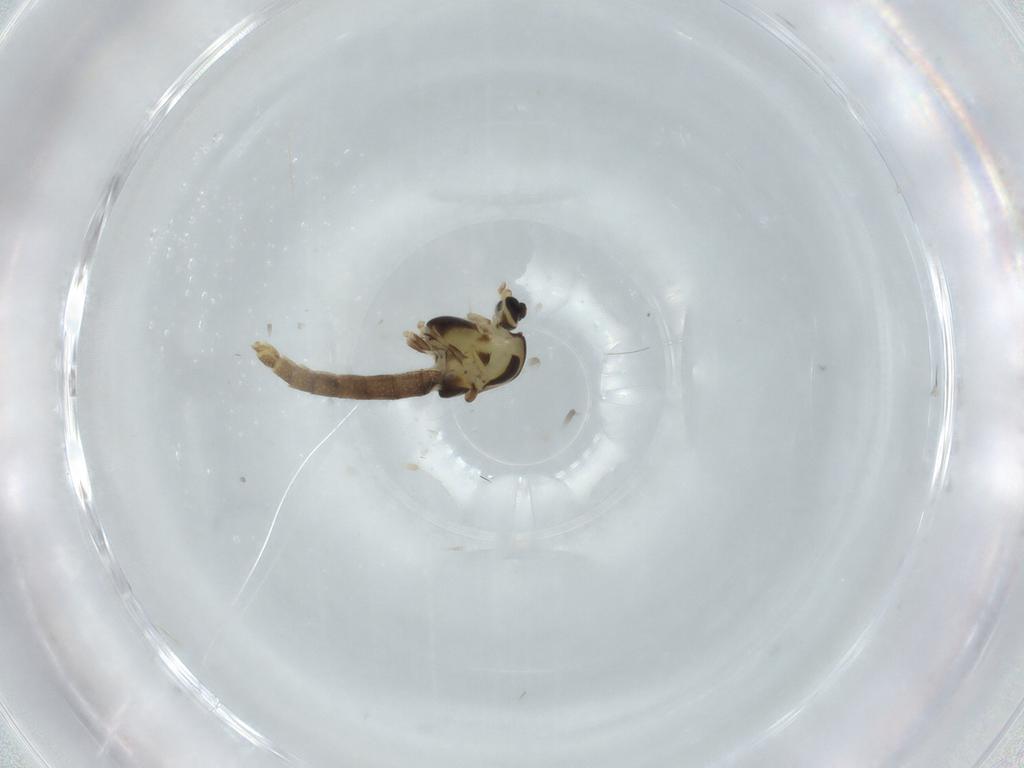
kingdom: Animalia
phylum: Arthropoda
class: Insecta
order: Diptera
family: Chironomidae
